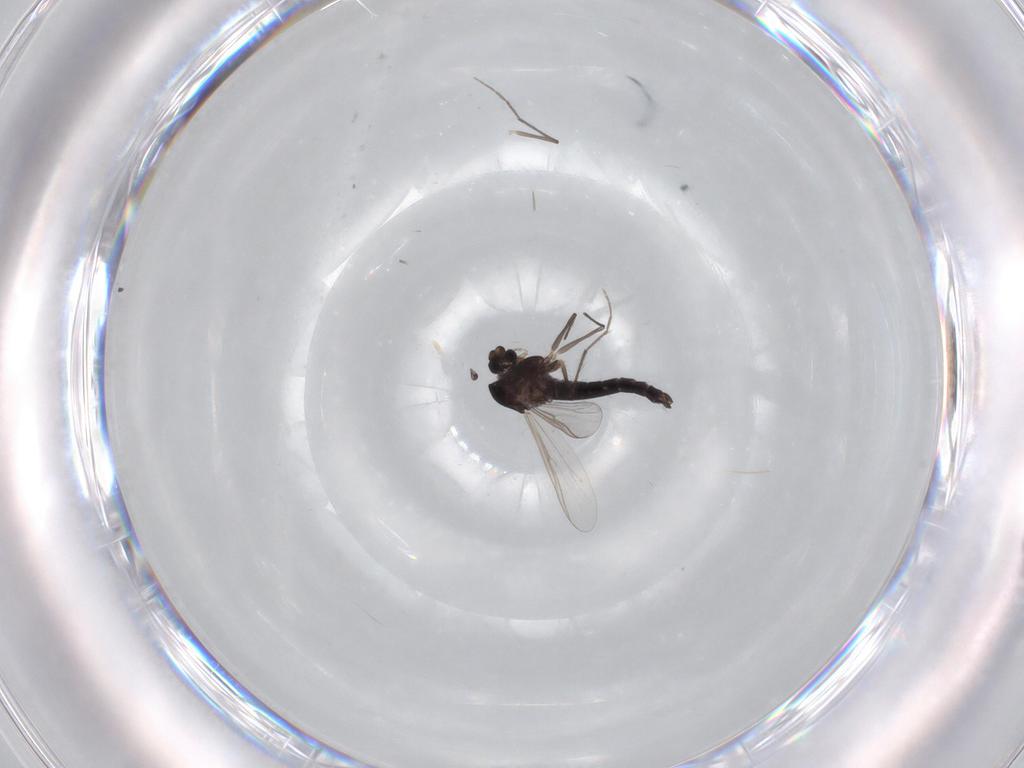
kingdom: Animalia
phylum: Arthropoda
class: Insecta
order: Diptera
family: Chironomidae
